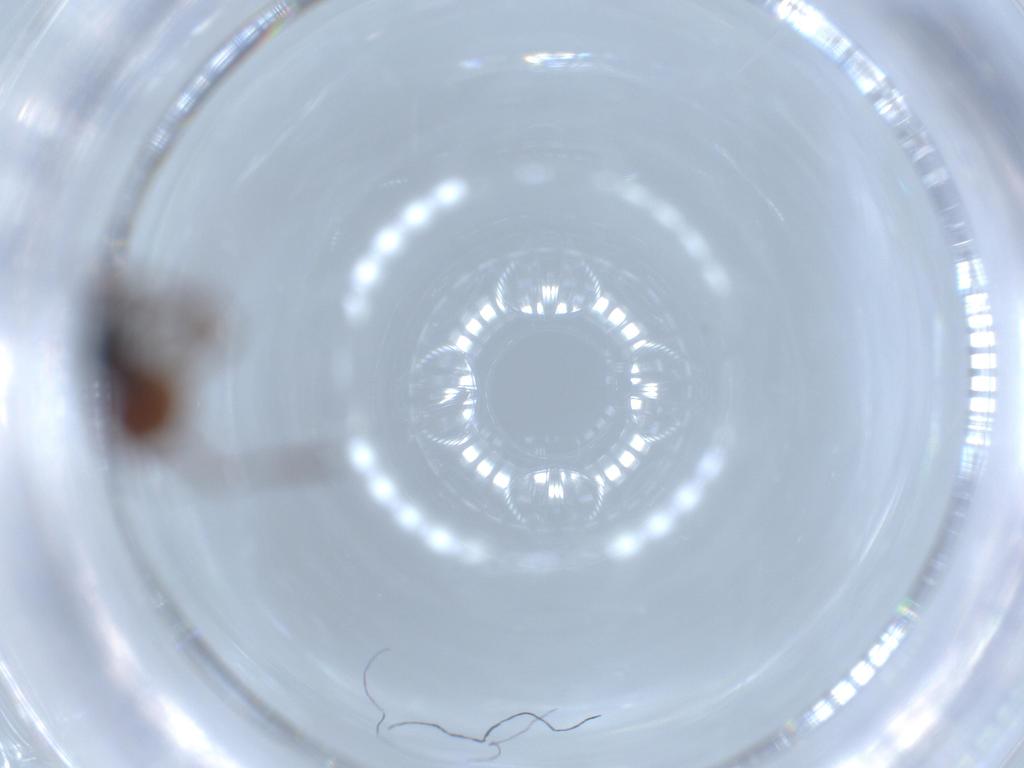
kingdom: Animalia
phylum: Arthropoda
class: Insecta
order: Hymenoptera
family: Formicidae
